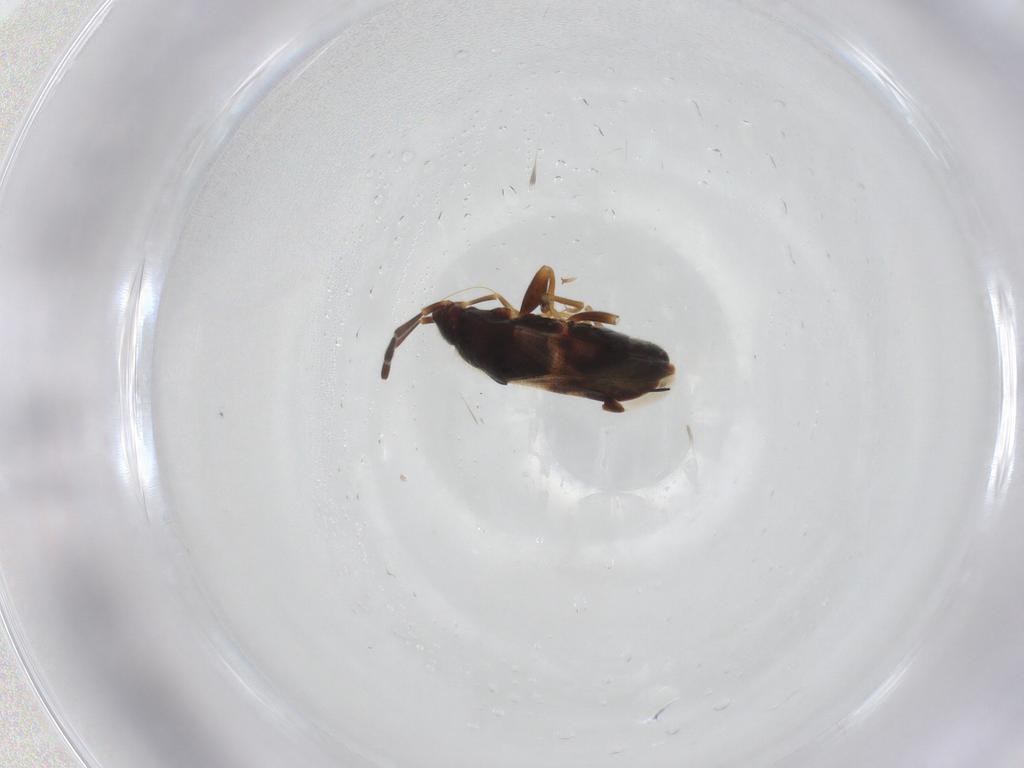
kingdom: Animalia
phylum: Arthropoda
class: Insecta
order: Hemiptera
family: Rhyparochromidae
